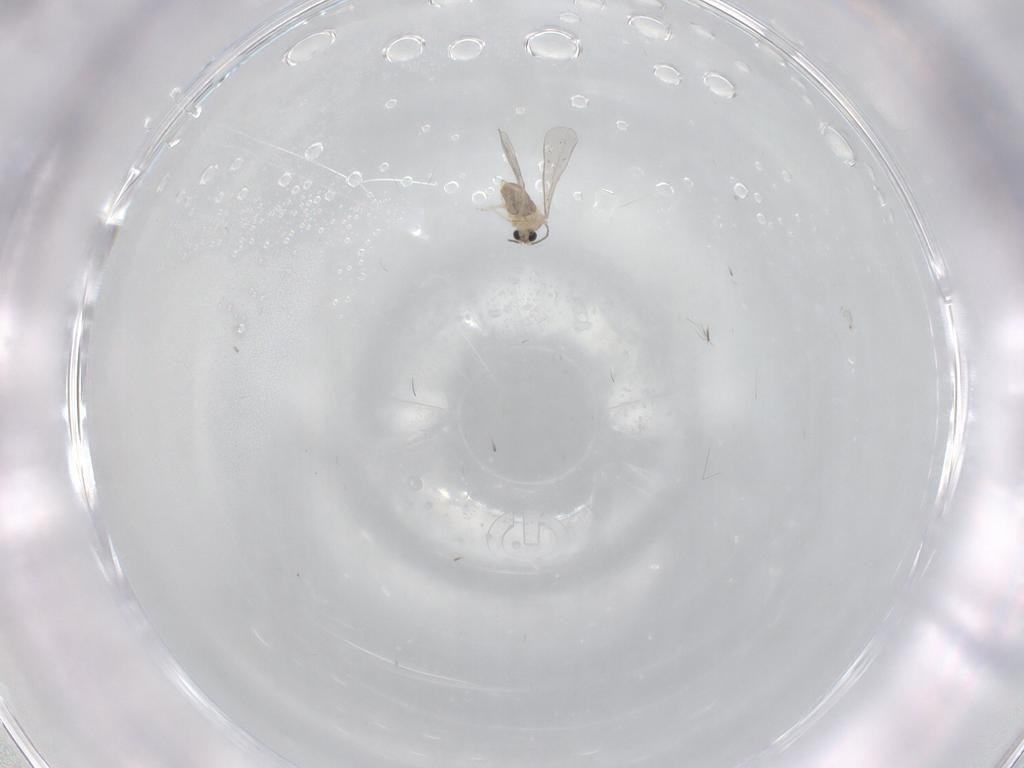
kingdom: Animalia
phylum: Arthropoda
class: Insecta
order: Diptera
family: Cecidomyiidae
